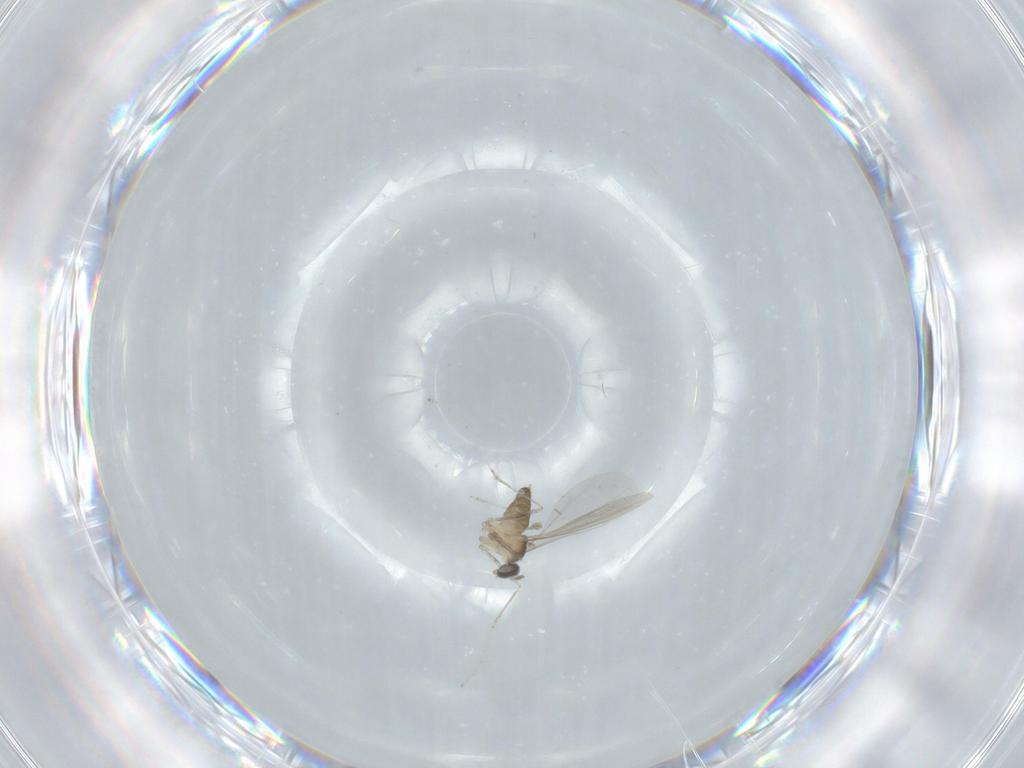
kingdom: Animalia
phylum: Arthropoda
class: Insecta
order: Diptera
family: Cecidomyiidae
